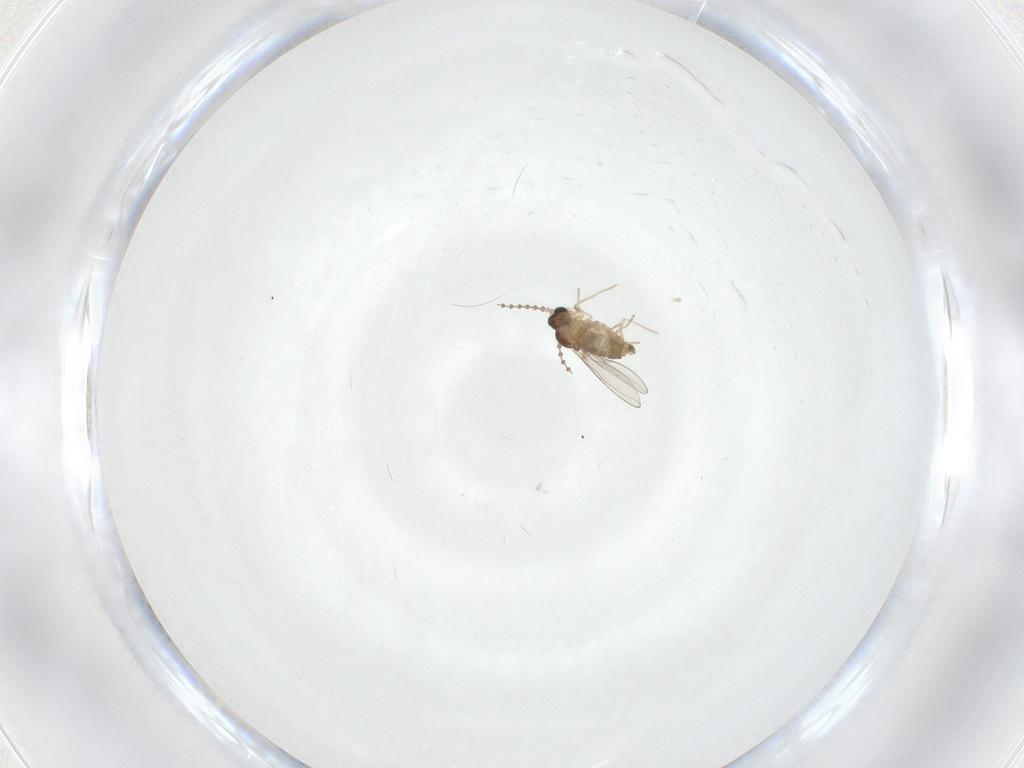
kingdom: Animalia
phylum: Arthropoda
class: Insecta
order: Diptera
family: Cecidomyiidae
